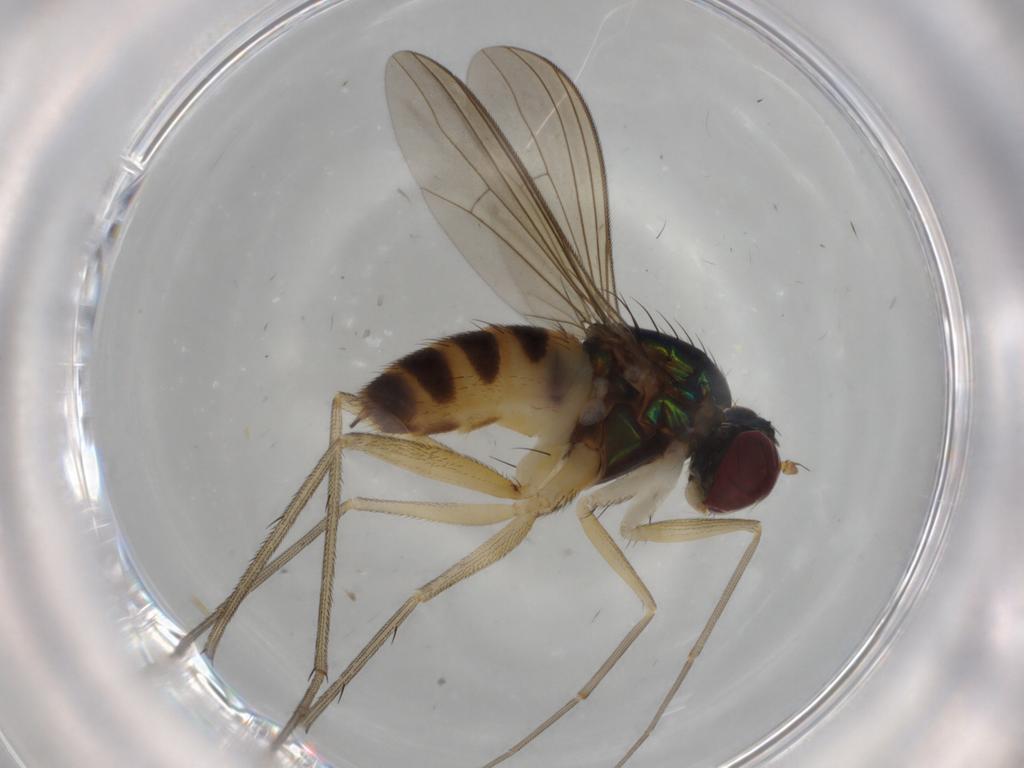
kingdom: Animalia
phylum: Arthropoda
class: Insecta
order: Diptera
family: Dolichopodidae
